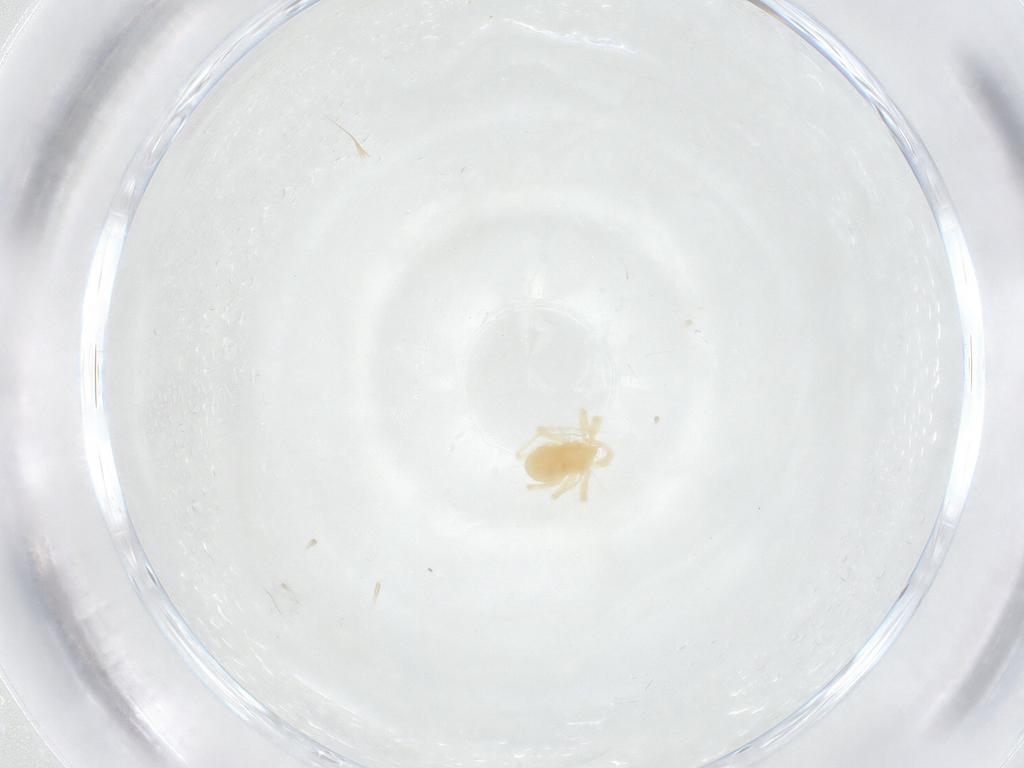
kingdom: Animalia
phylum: Arthropoda
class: Arachnida
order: Trombidiformes
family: Anystidae
